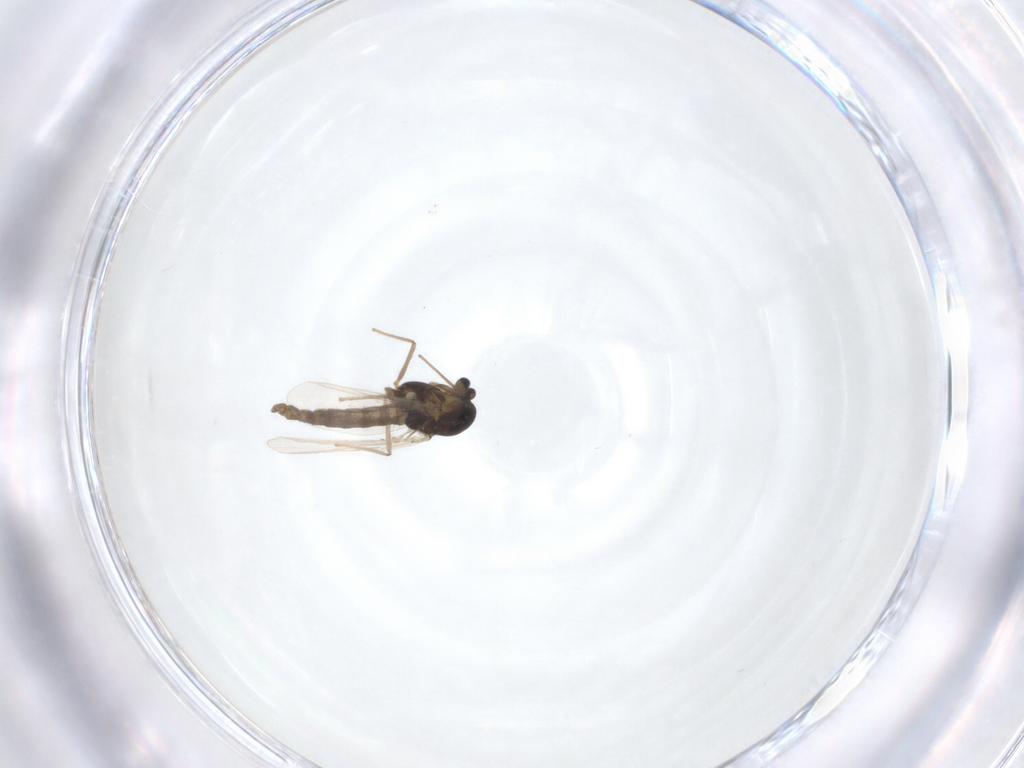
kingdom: Animalia
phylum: Arthropoda
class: Insecta
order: Diptera
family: Chironomidae
